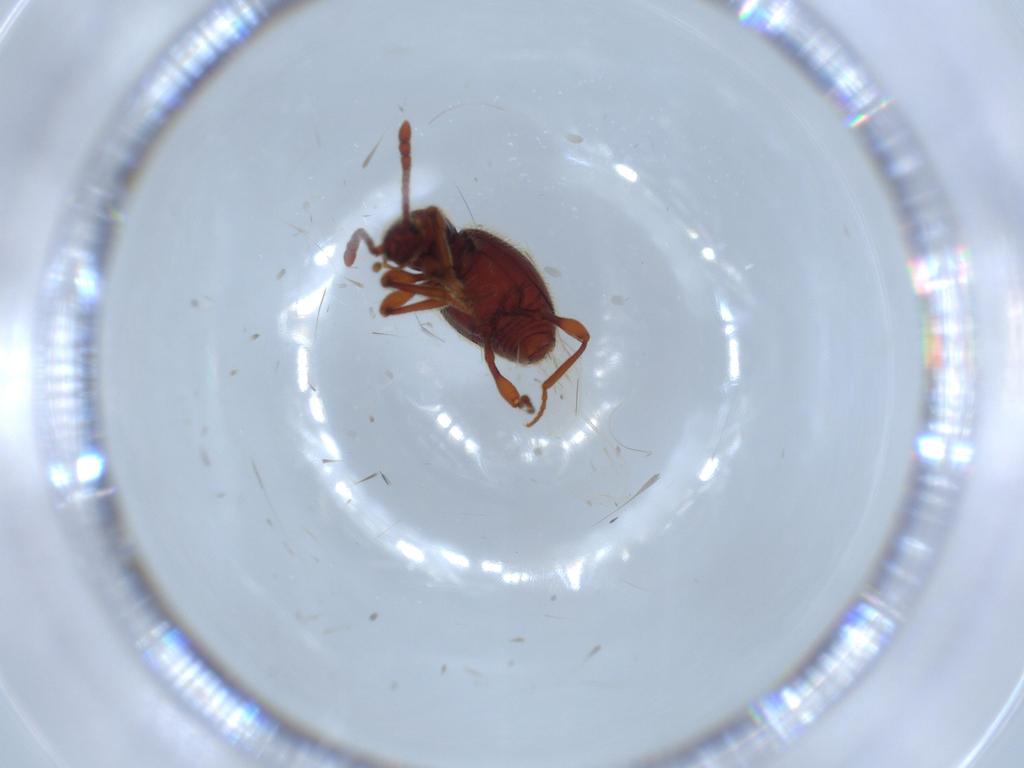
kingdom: Animalia
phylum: Arthropoda
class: Insecta
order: Coleoptera
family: Staphylinidae
